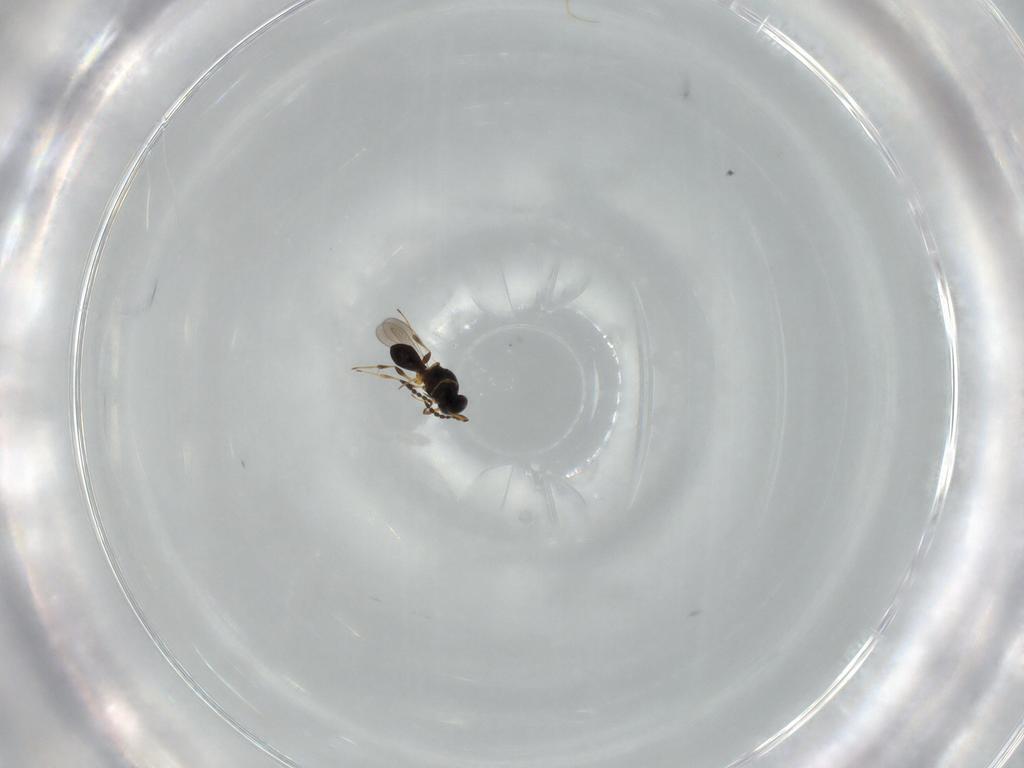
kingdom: Animalia
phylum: Arthropoda
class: Insecta
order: Hymenoptera
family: Platygastridae
